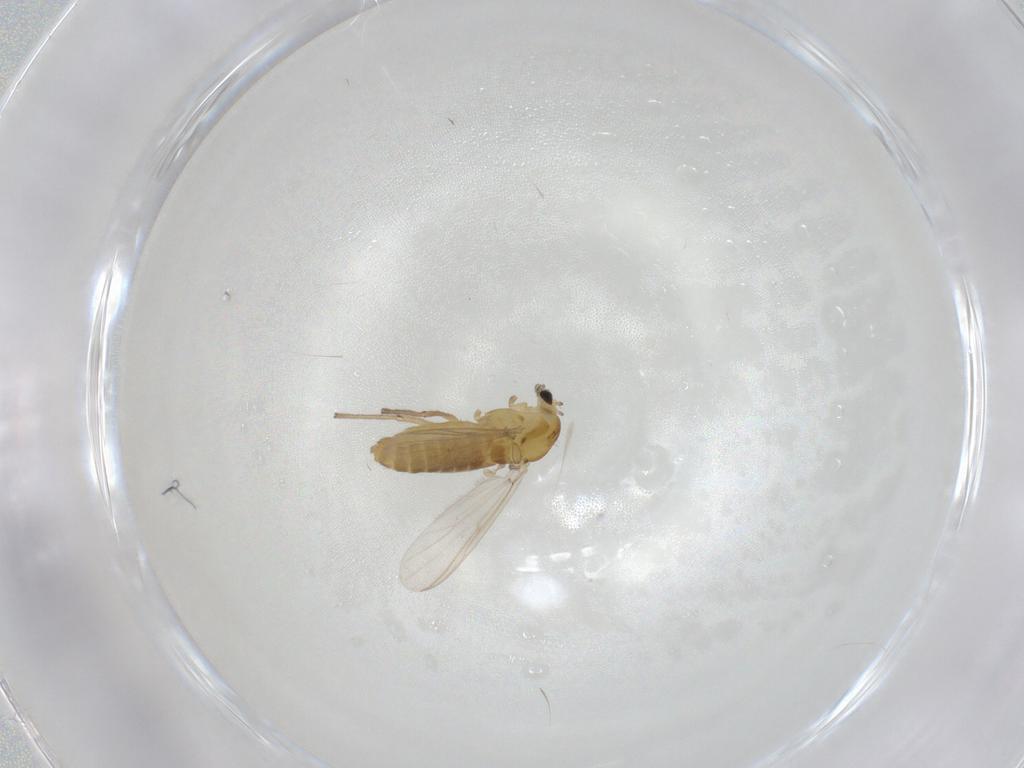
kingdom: Animalia
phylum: Arthropoda
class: Insecta
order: Diptera
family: Chironomidae
